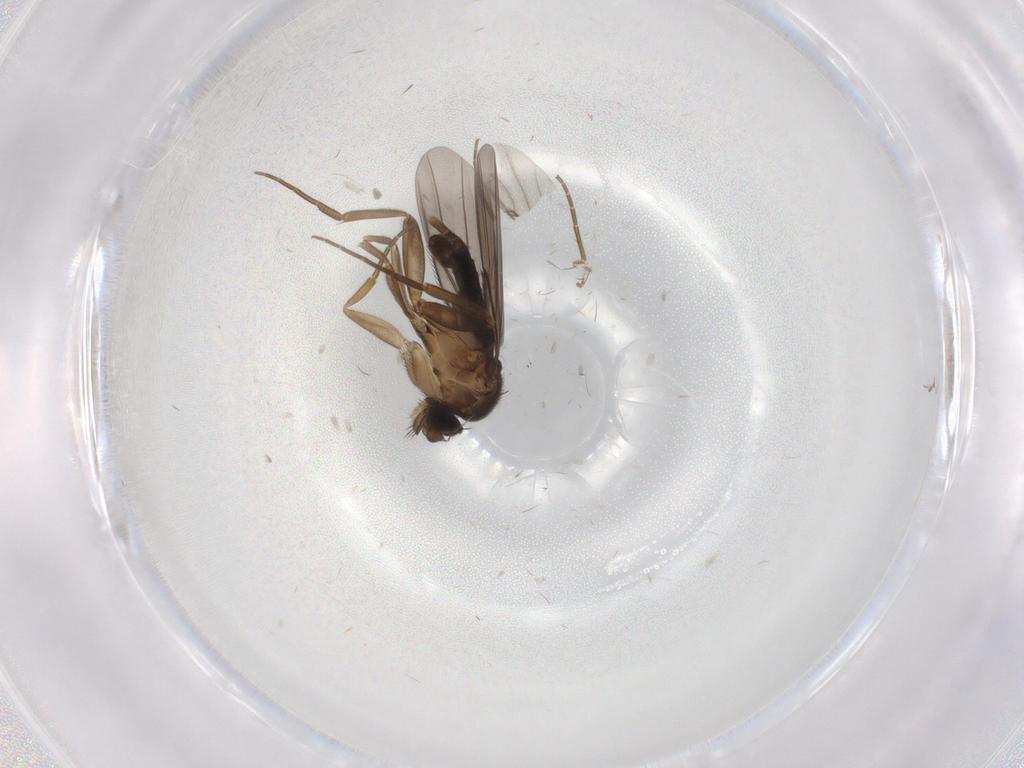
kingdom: Animalia
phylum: Arthropoda
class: Insecta
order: Diptera
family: Phoridae
